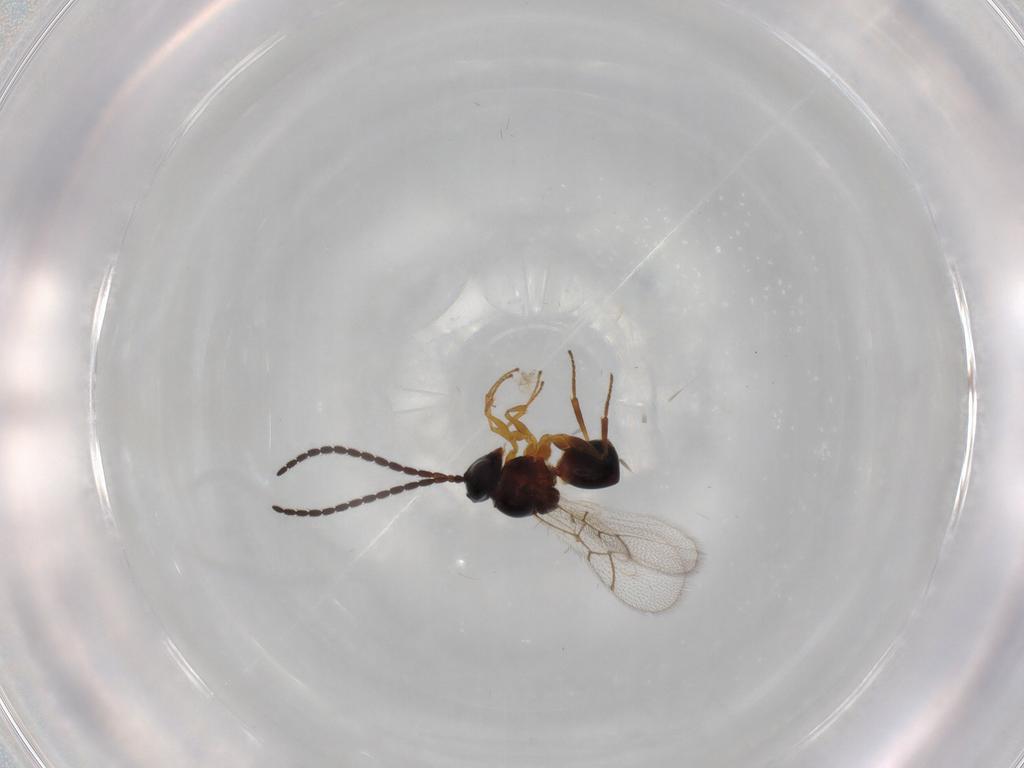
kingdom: Animalia
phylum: Arthropoda
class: Insecta
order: Hymenoptera
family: Figitidae
